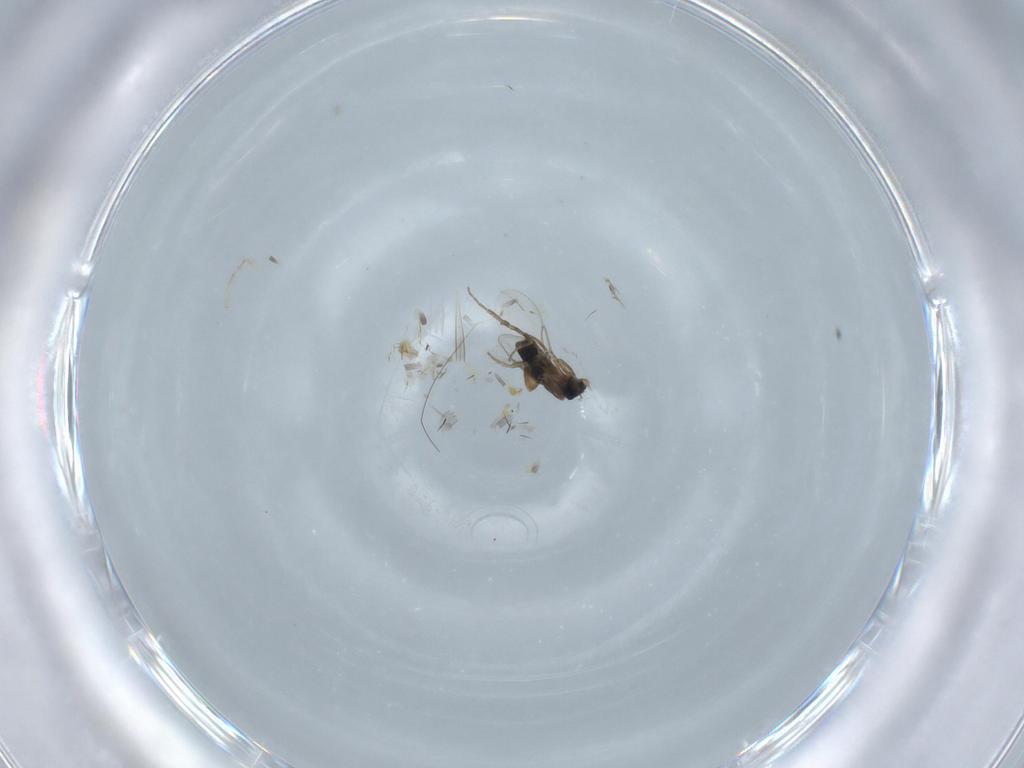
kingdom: Animalia
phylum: Arthropoda
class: Insecta
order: Diptera
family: Phoridae
